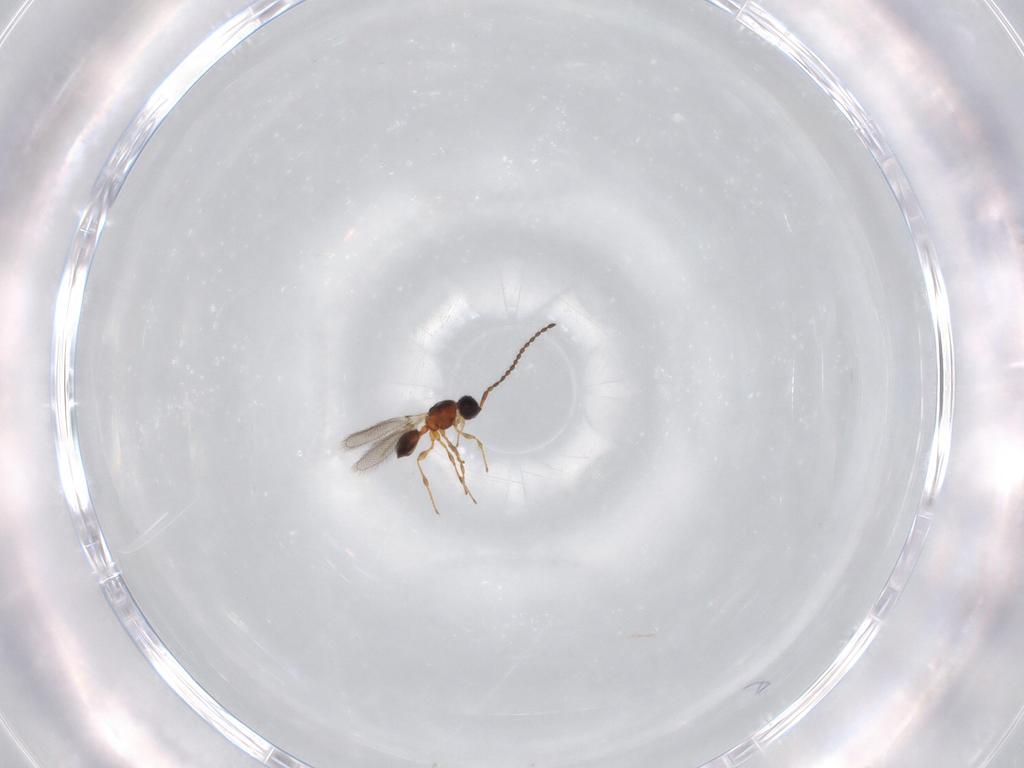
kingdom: Animalia
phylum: Arthropoda
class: Insecta
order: Hymenoptera
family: Diapriidae
